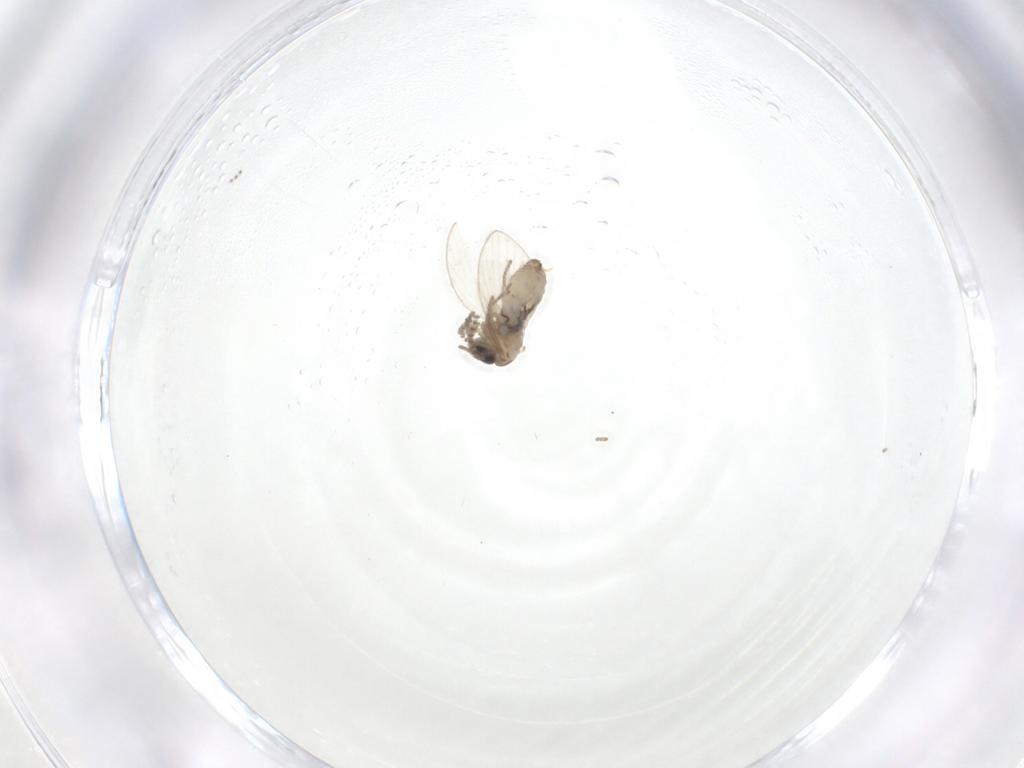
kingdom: Animalia
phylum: Arthropoda
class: Insecta
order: Diptera
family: Psychodidae
